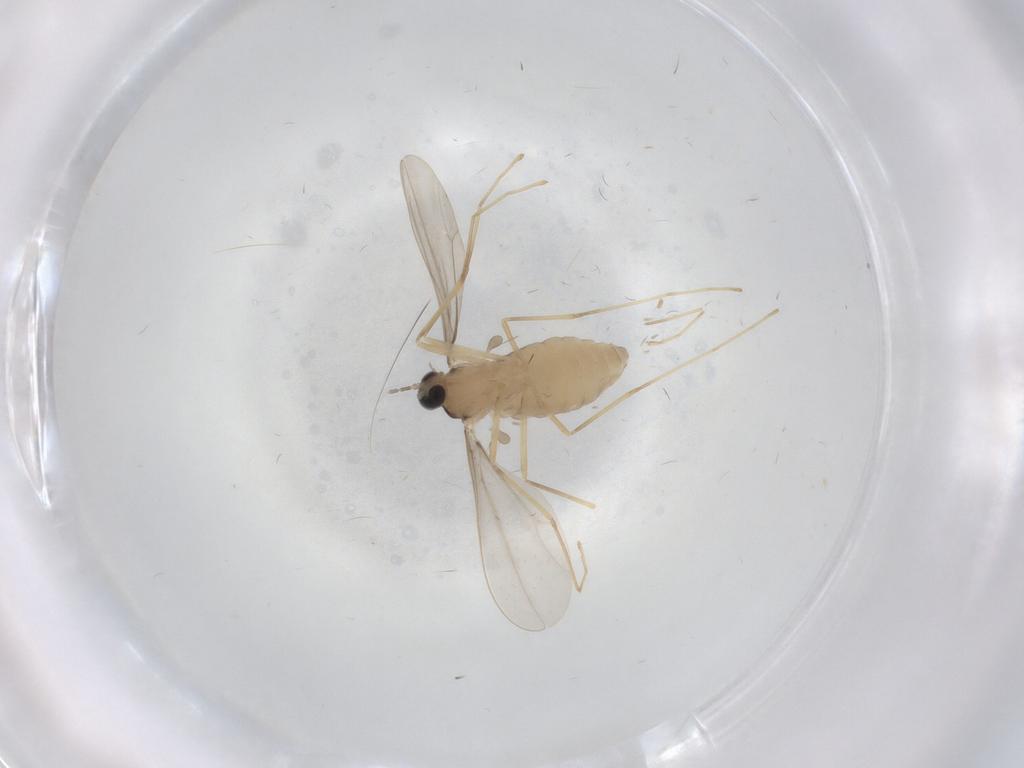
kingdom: Animalia
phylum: Arthropoda
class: Insecta
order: Diptera
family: Cecidomyiidae
